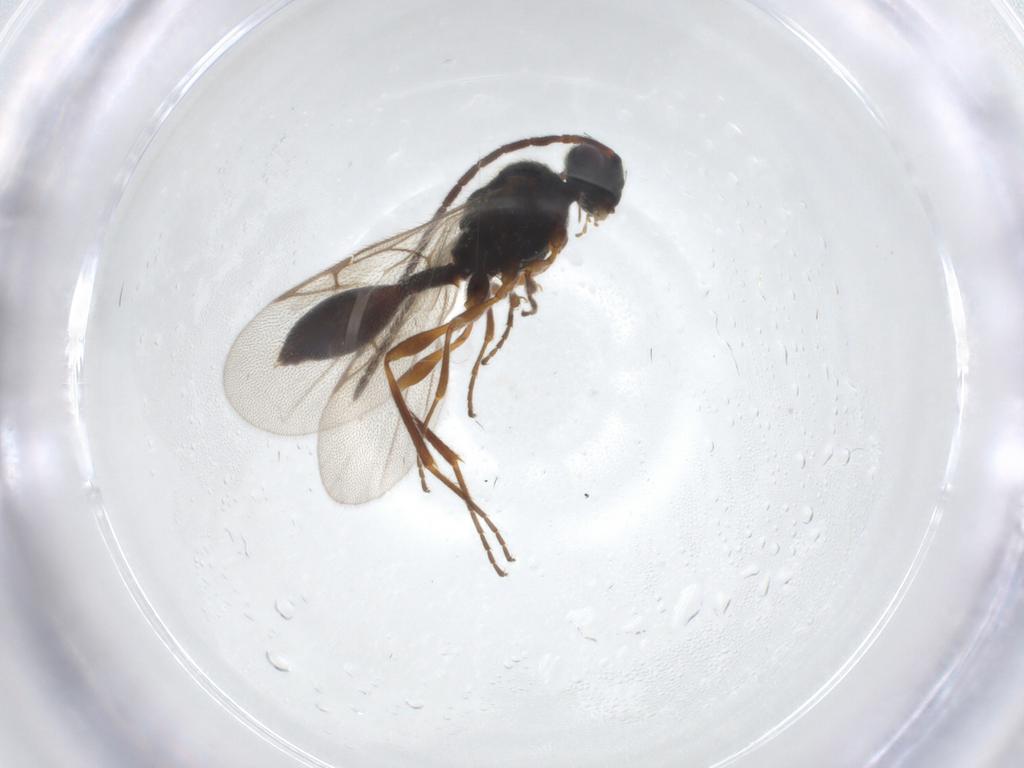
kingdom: Animalia
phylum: Arthropoda
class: Insecta
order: Hymenoptera
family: Diapriidae
